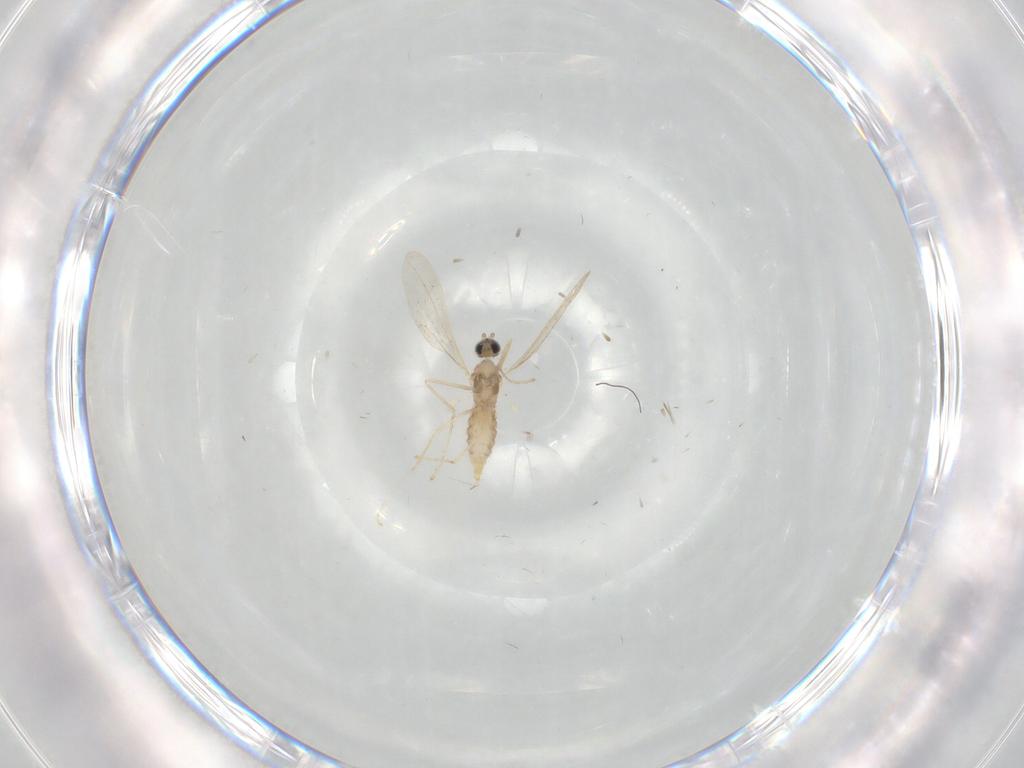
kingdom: Animalia
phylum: Arthropoda
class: Insecta
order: Diptera
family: Cecidomyiidae
